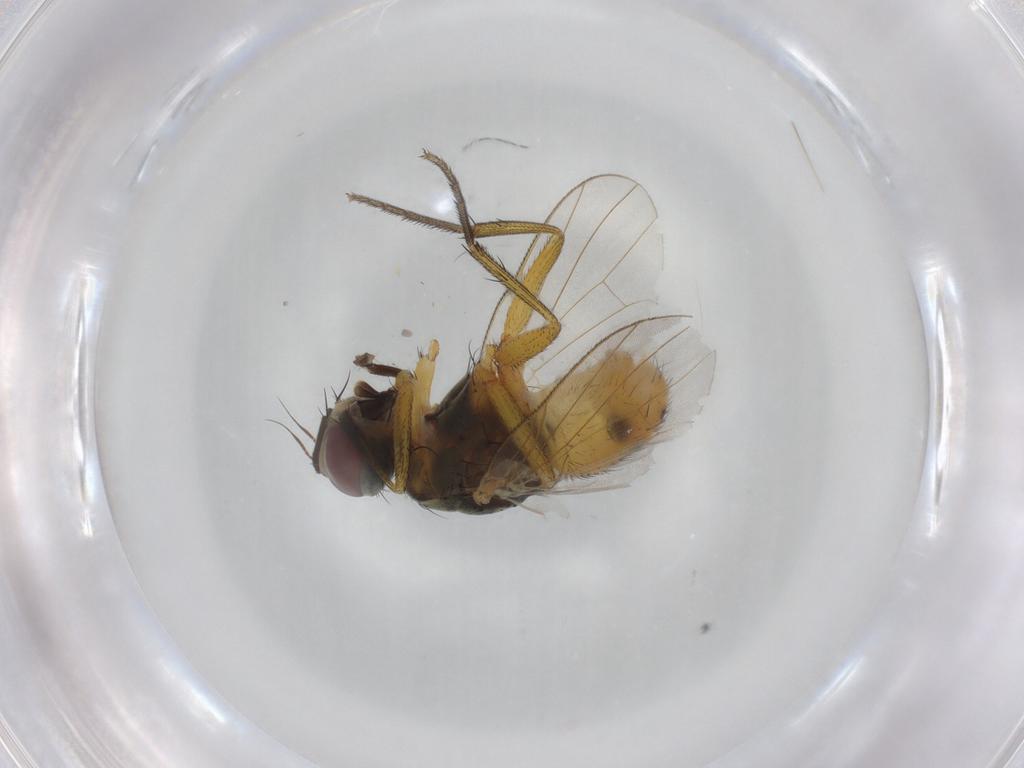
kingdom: Animalia
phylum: Arthropoda
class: Insecta
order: Diptera
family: Muscidae
